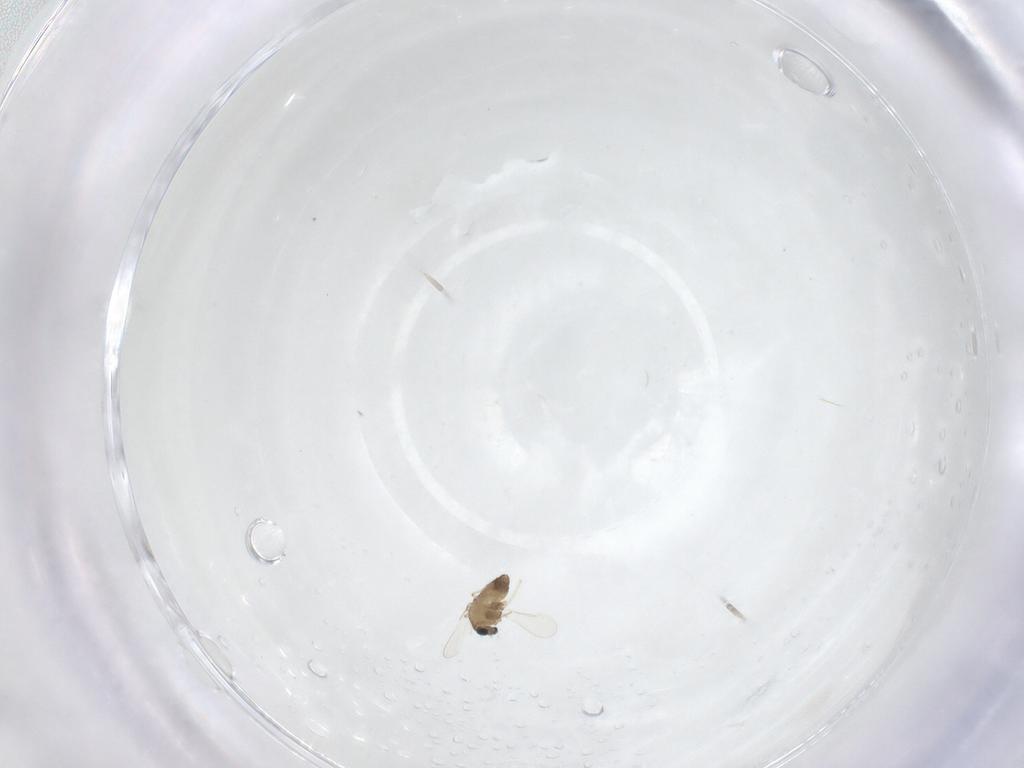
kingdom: Animalia
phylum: Arthropoda
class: Insecta
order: Diptera
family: Chironomidae
